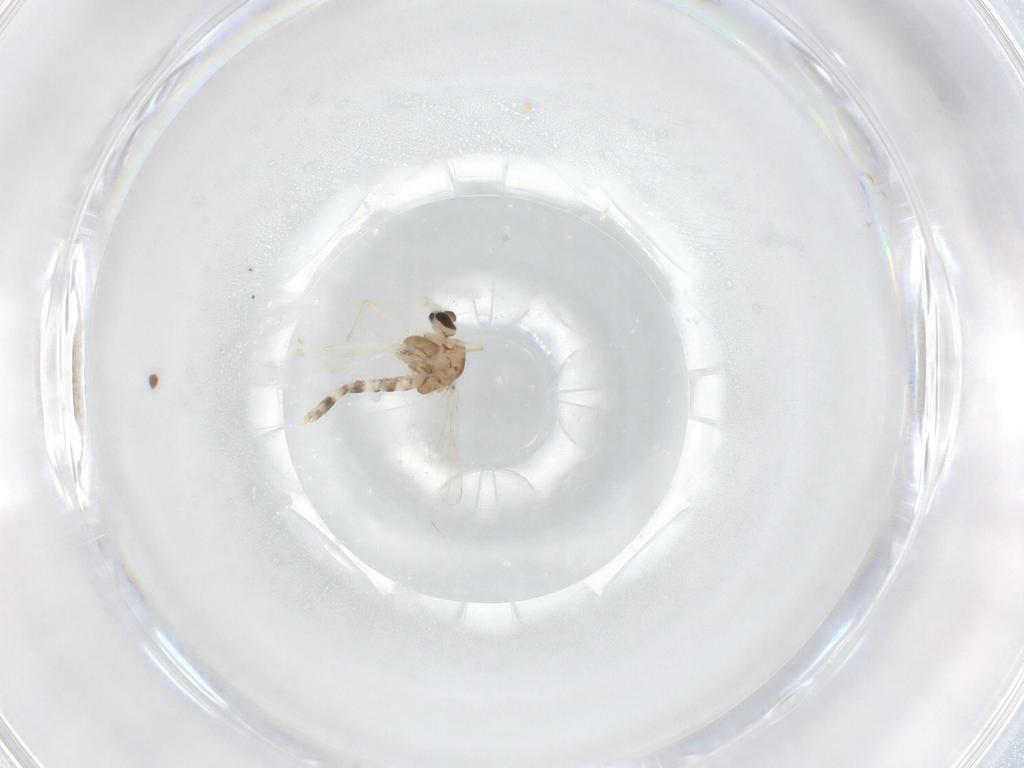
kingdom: Animalia
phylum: Arthropoda
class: Insecta
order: Diptera
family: Chironomidae
